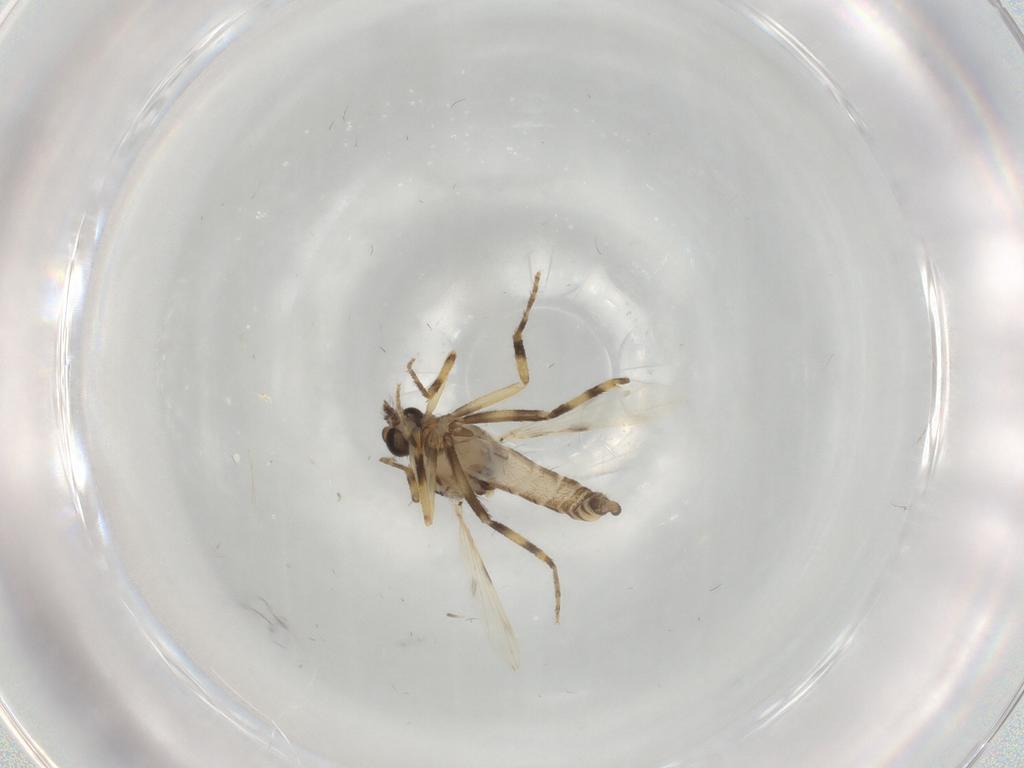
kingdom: Animalia
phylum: Arthropoda
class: Insecta
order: Diptera
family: Ceratopogonidae
